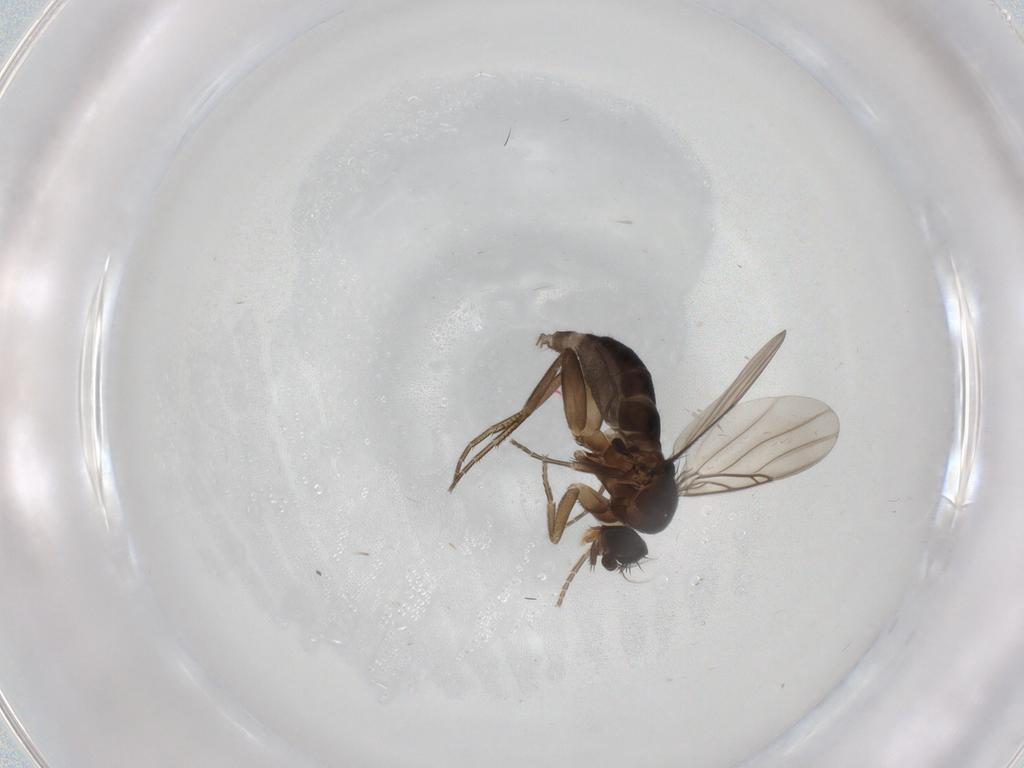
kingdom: Animalia
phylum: Arthropoda
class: Insecta
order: Diptera
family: Phoridae
